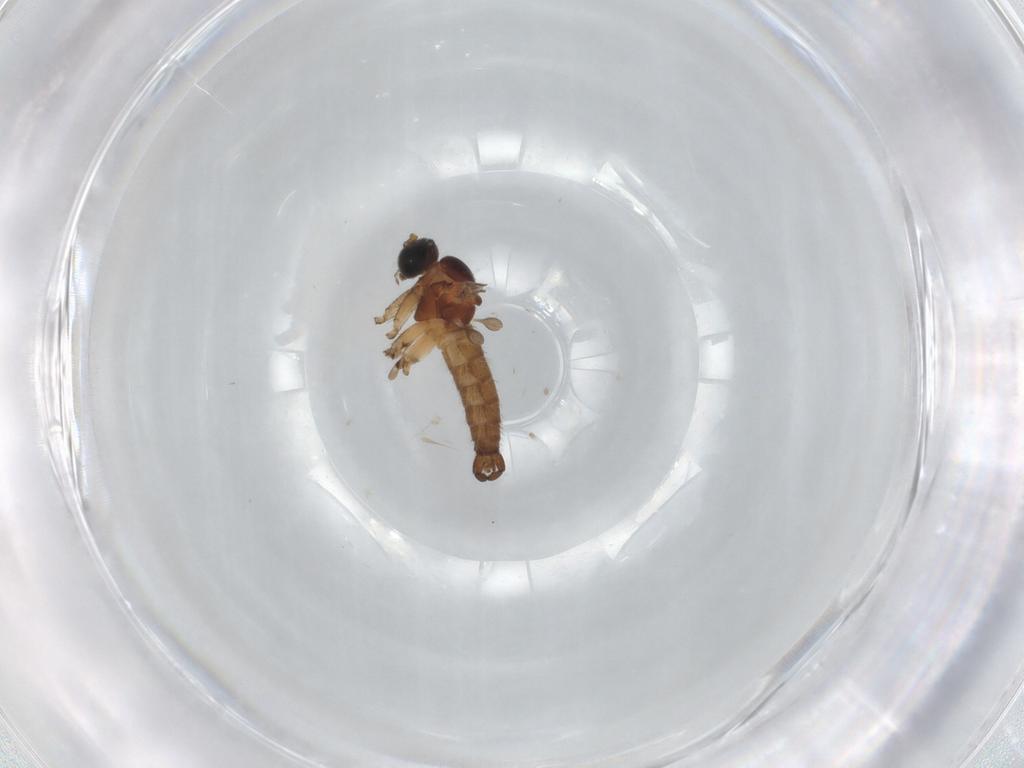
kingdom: Animalia
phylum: Arthropoda
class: Insecta
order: Diptera
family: Sciaridae
